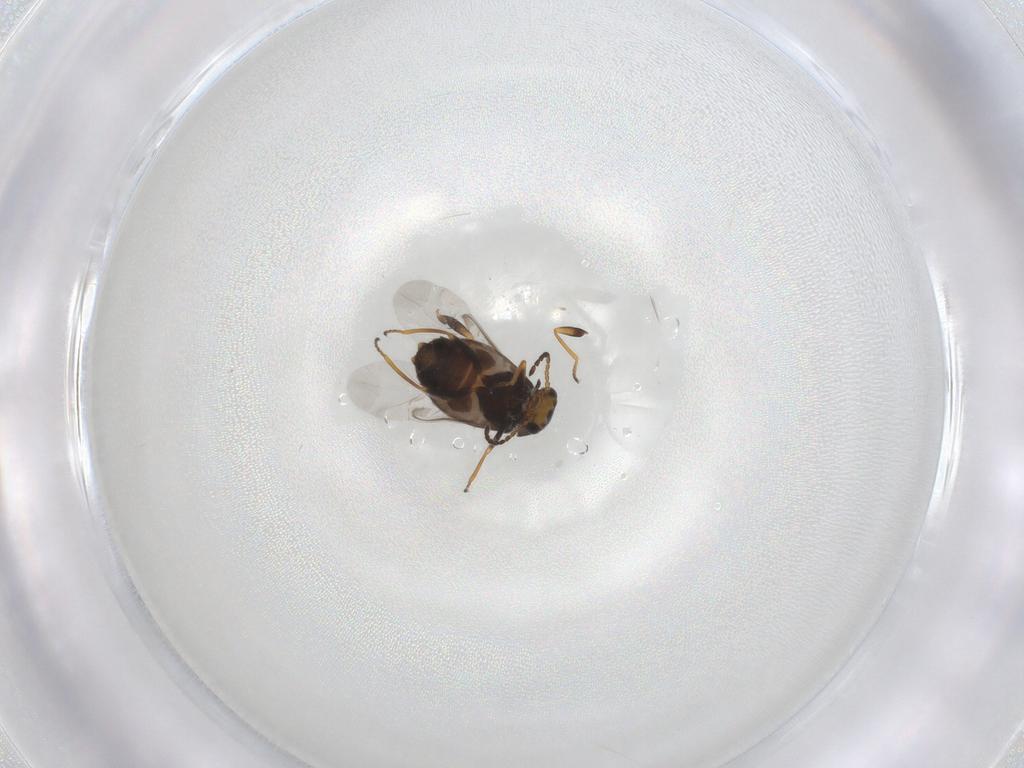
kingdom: Animalia
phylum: Arthropoda
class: Insecta
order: Coleoptera
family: Melyridae
